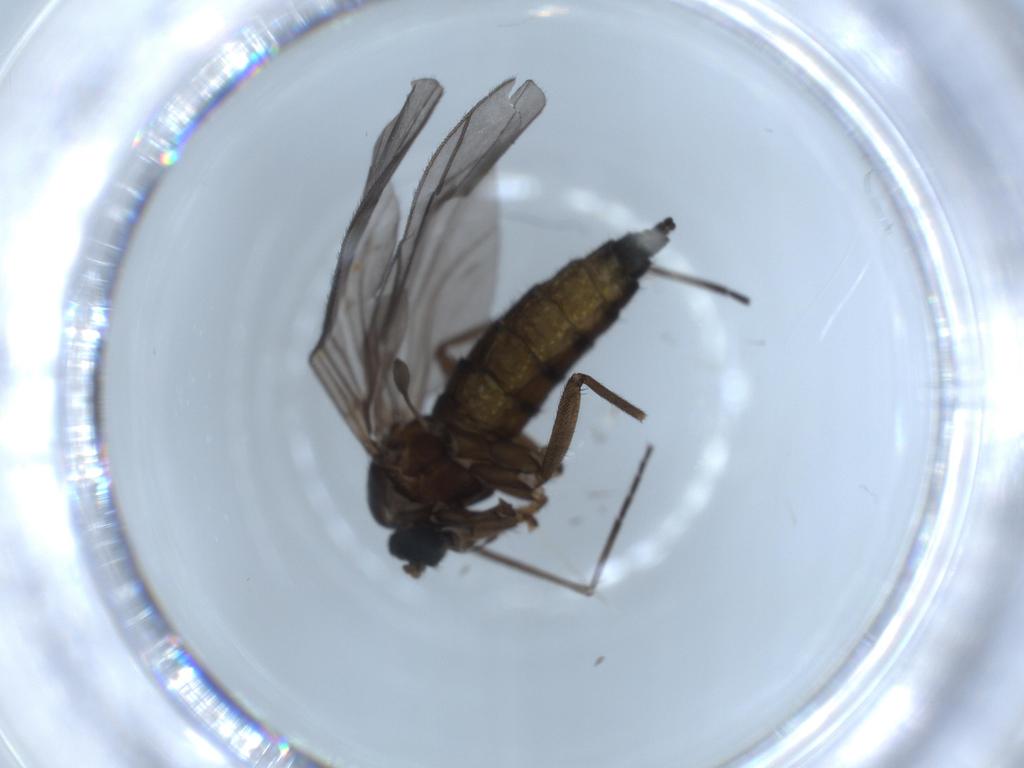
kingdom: Animalia
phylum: Arthropoda
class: Insecta
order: Diptera
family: Sciaridae
